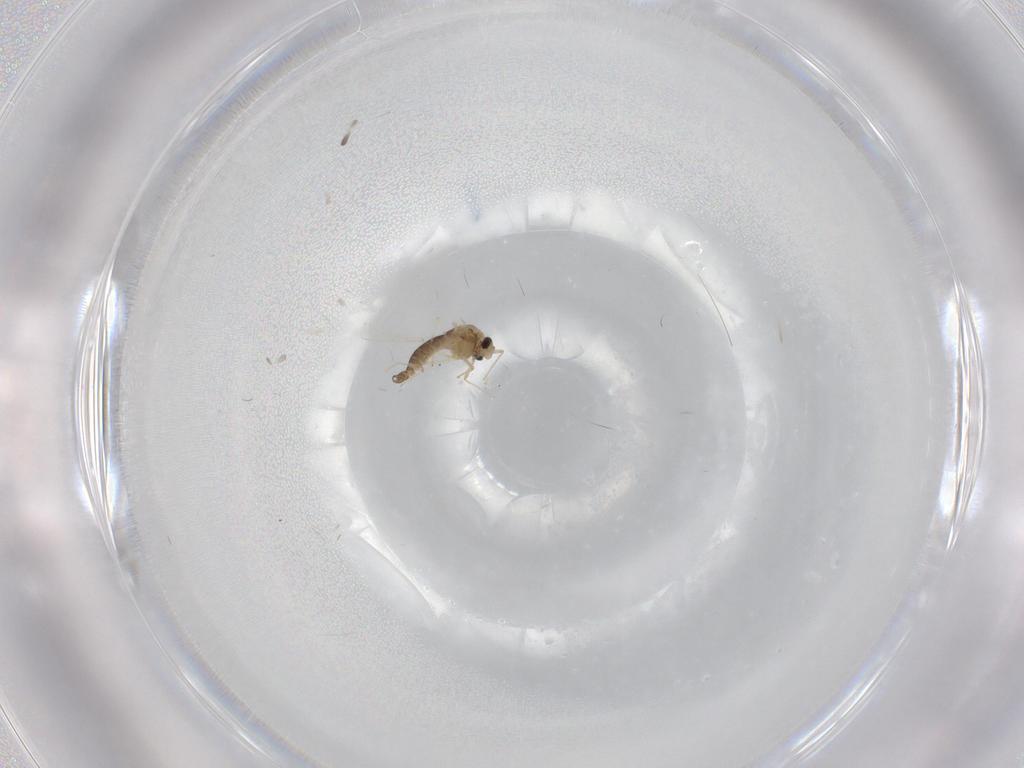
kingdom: Animalia
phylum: Arthropoda
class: Insecta
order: Diptera
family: Chironomidae
